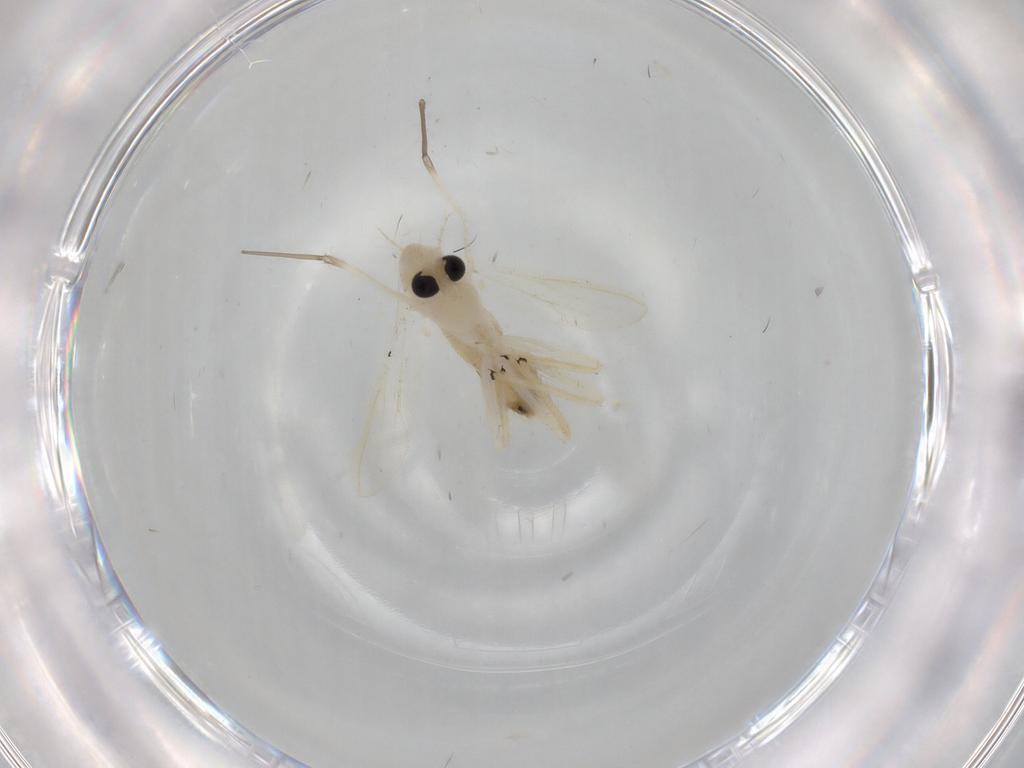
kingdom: Animalia
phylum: Arthropoda
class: Insecta
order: Diptera
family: Chironomidae
